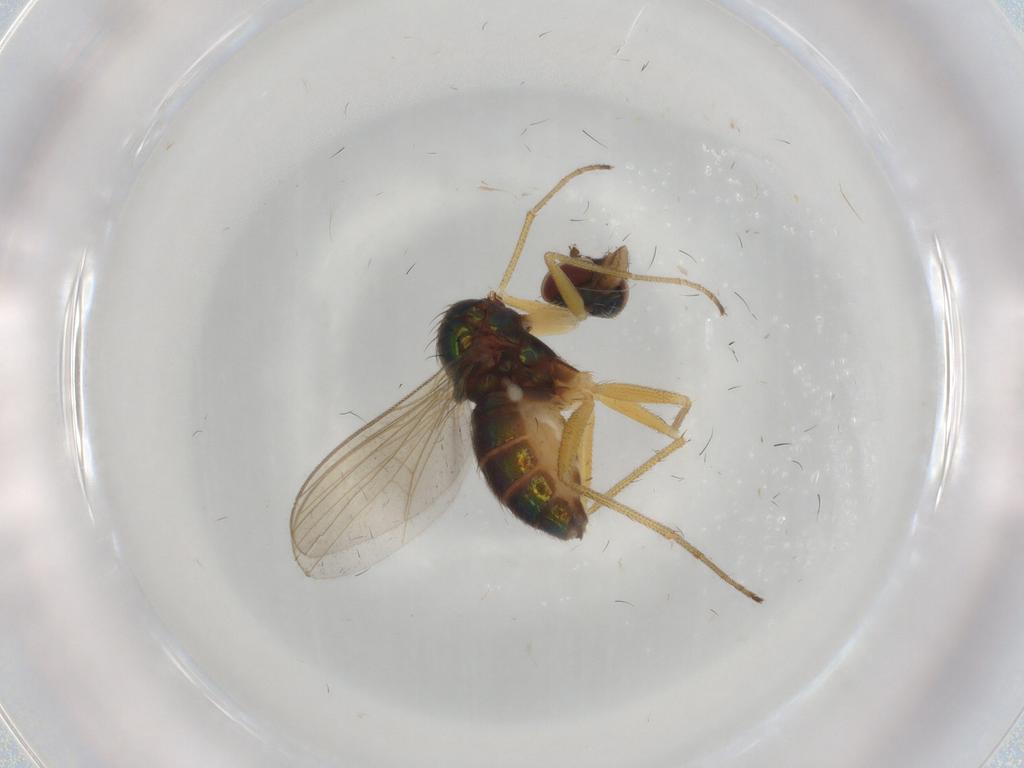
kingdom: Animalia
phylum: Arthropoda
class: Insecta
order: Diptera
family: Dolichopodidae
